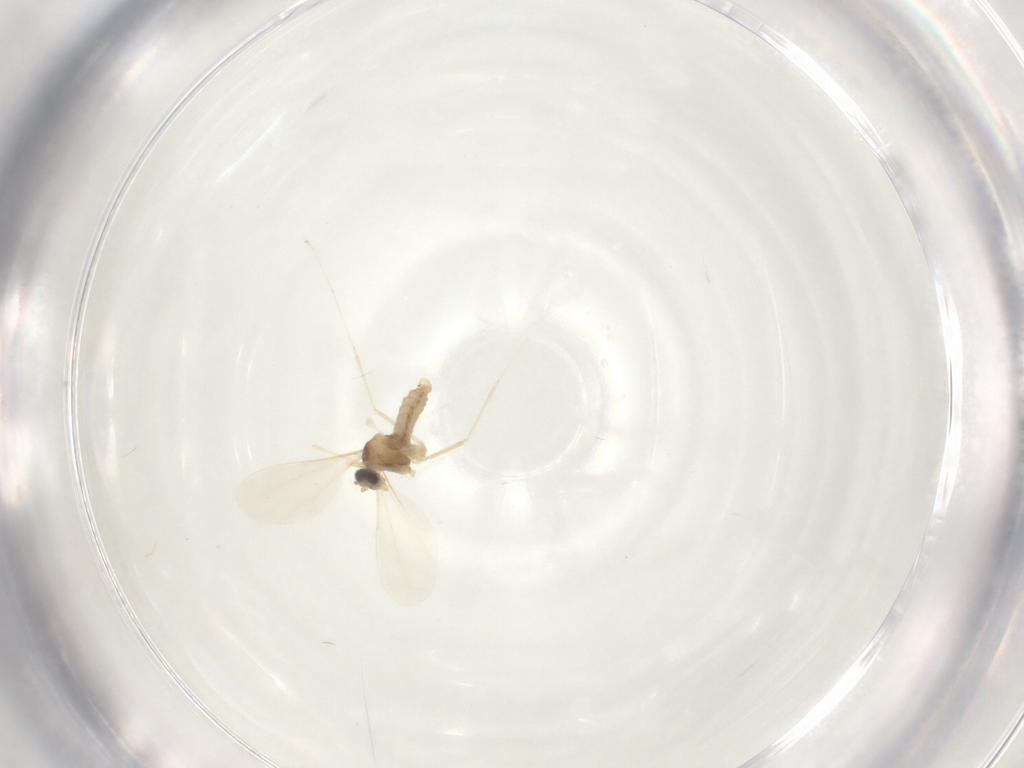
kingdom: Animalia
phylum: Arthropoda
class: Insecta
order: Diptera
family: Cecidomyiidae
